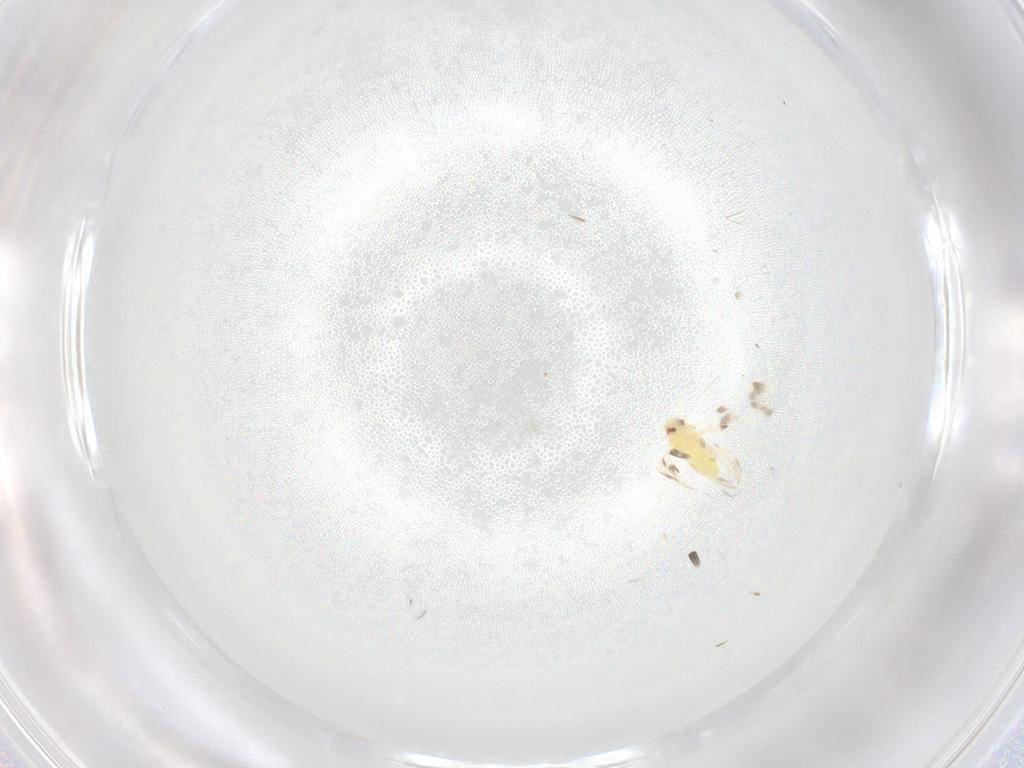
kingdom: Animalia
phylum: Arthropoda
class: Insecta
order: Hemiptera
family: Aleyrodidae
